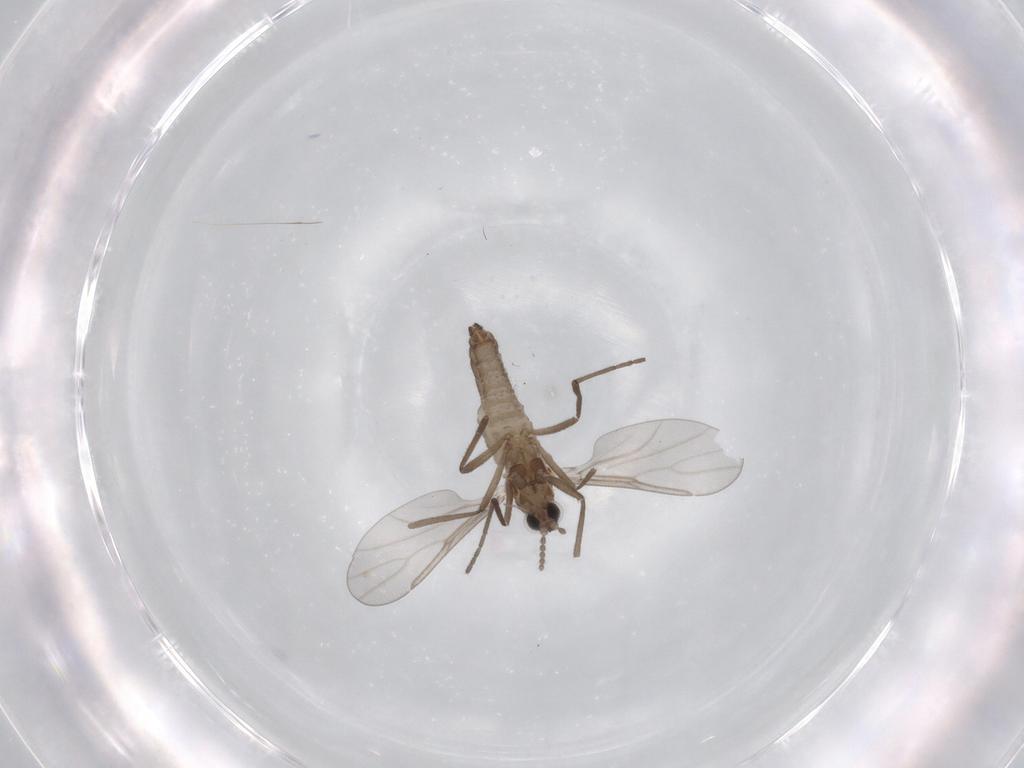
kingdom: Animalia
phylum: Arthropoda
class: Insecta
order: Diptera
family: Cecidomyiidae
